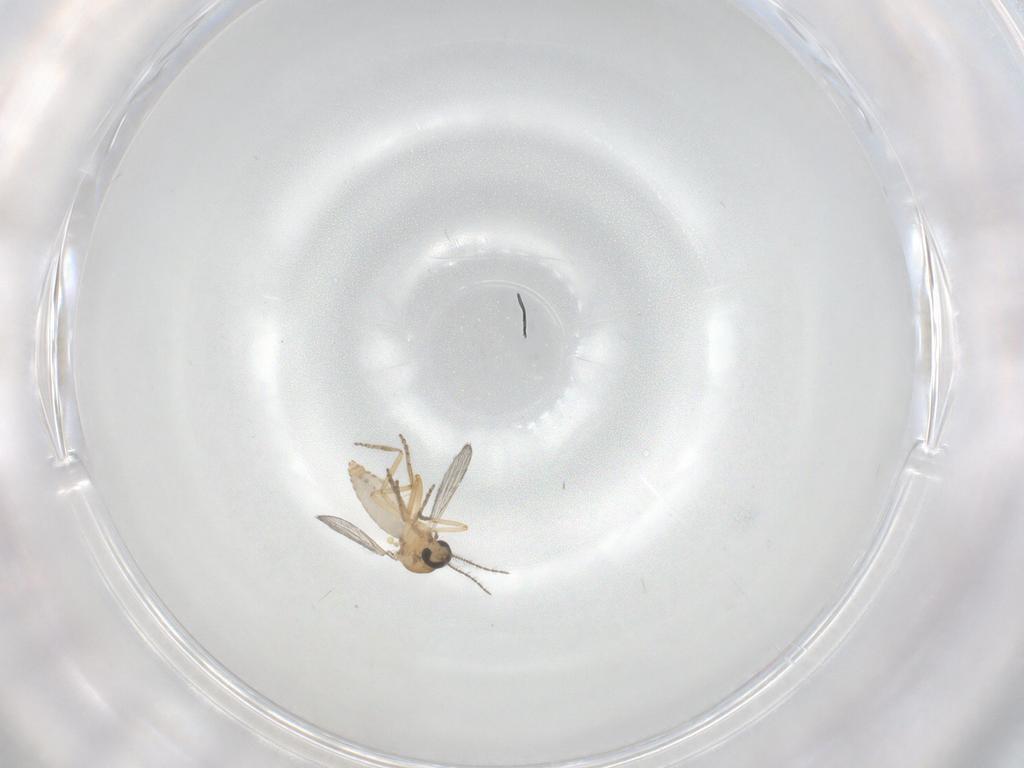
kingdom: Animalia
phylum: Arthropoda
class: Insecta
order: Diptera
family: Ceratopogonidae
